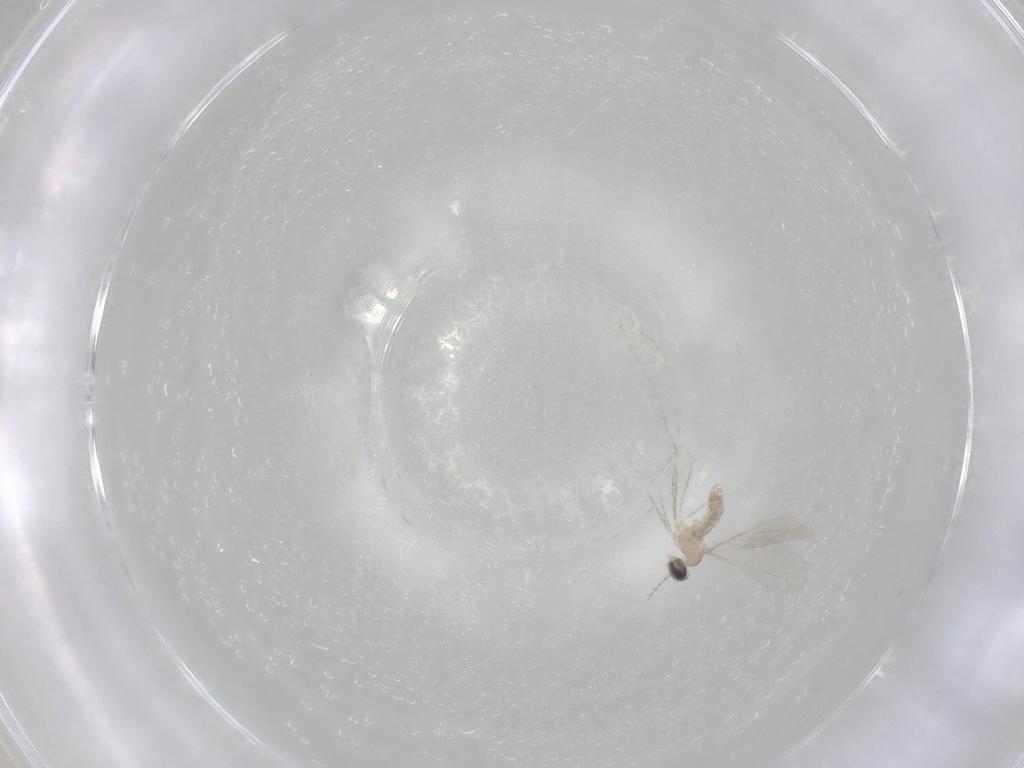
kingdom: Animalia
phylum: Arthropoda
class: Insecta
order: Diptera
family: Cecidomyiidae
